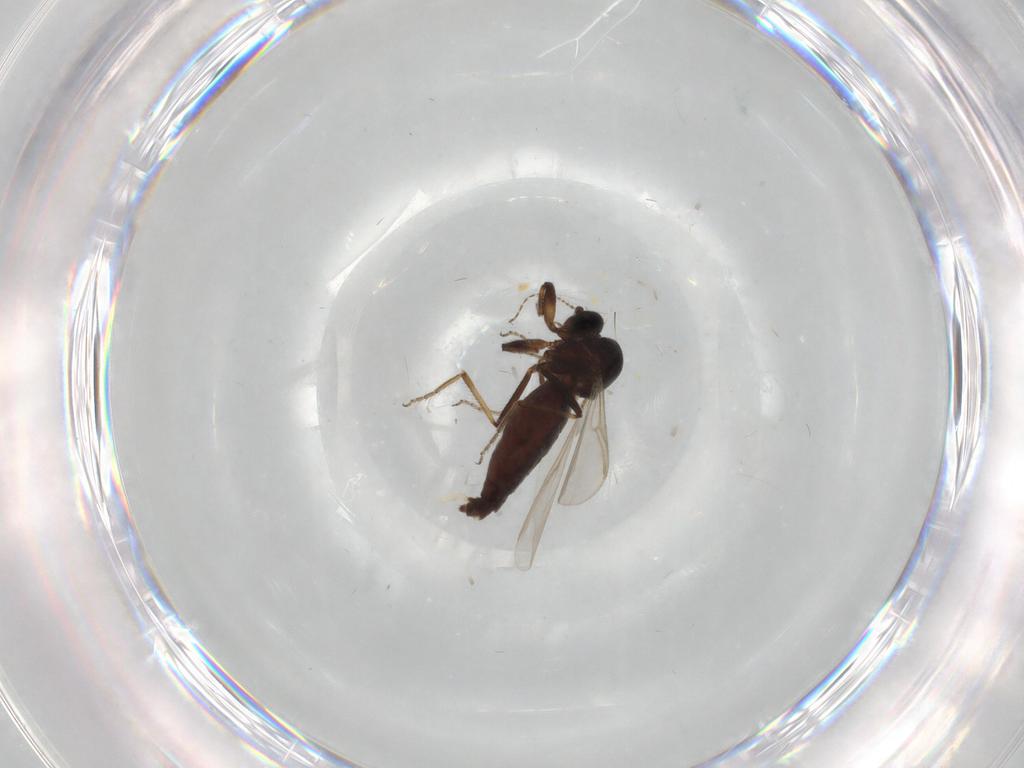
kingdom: Animalia
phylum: Arthropoda
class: Insecta
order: Diptera
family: Ceratopogonidae
